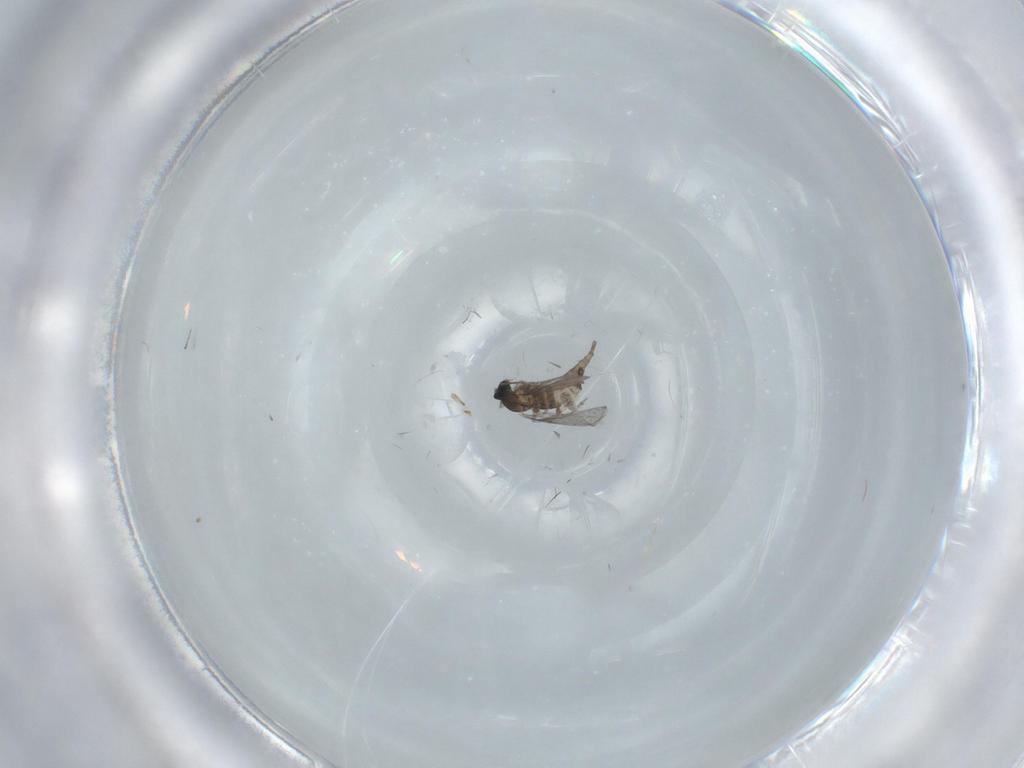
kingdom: Animalia
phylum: Arthropoda
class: Insecta
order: Diptera
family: Cecidomyiidae
